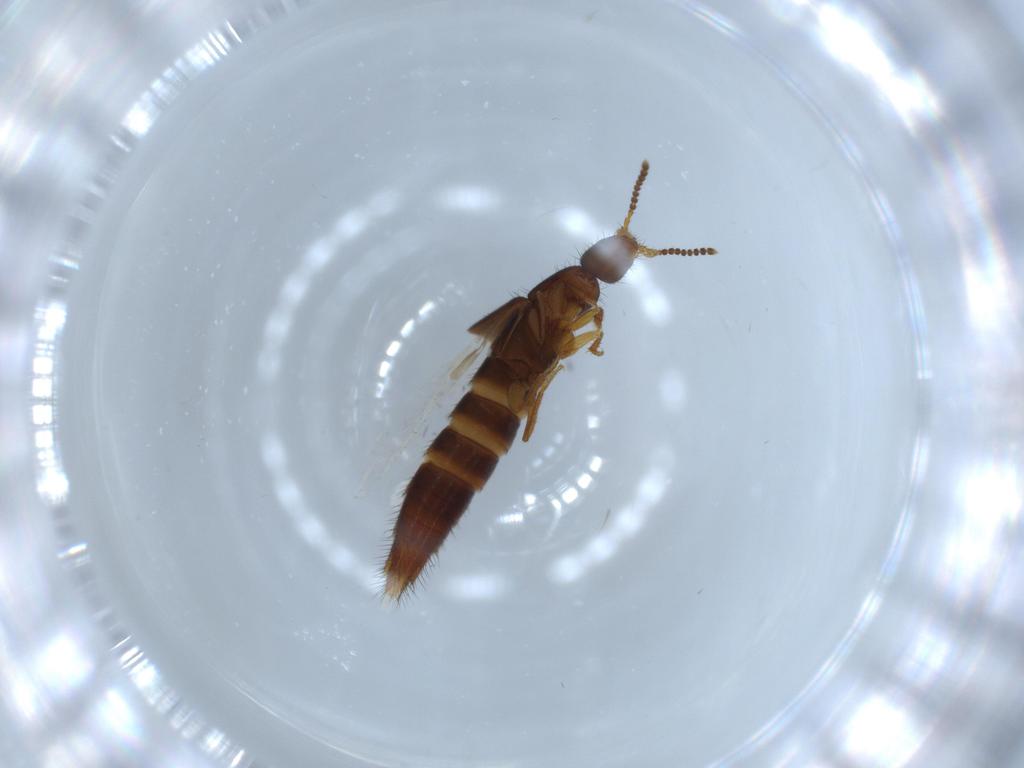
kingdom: Animalia
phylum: Arthropoda
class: Insecta
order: Coleoptera
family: Staphylinidae
